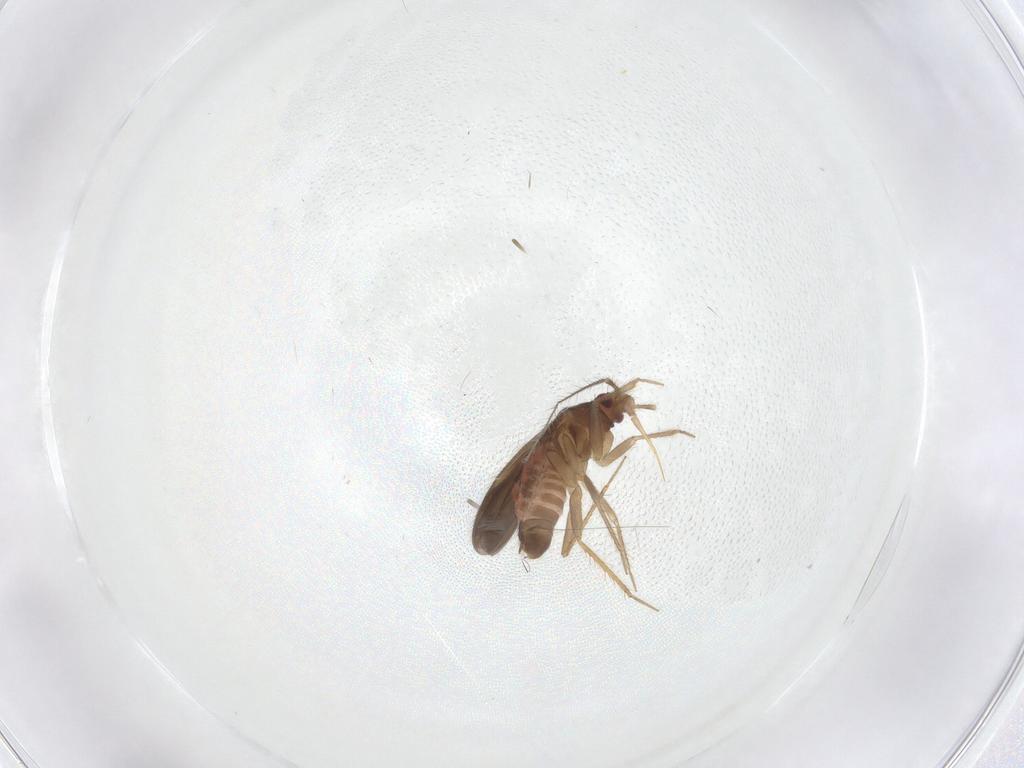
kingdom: Animalia
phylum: Arthropoda
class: Insecta
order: Hemiptera
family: Ceratocombidae
